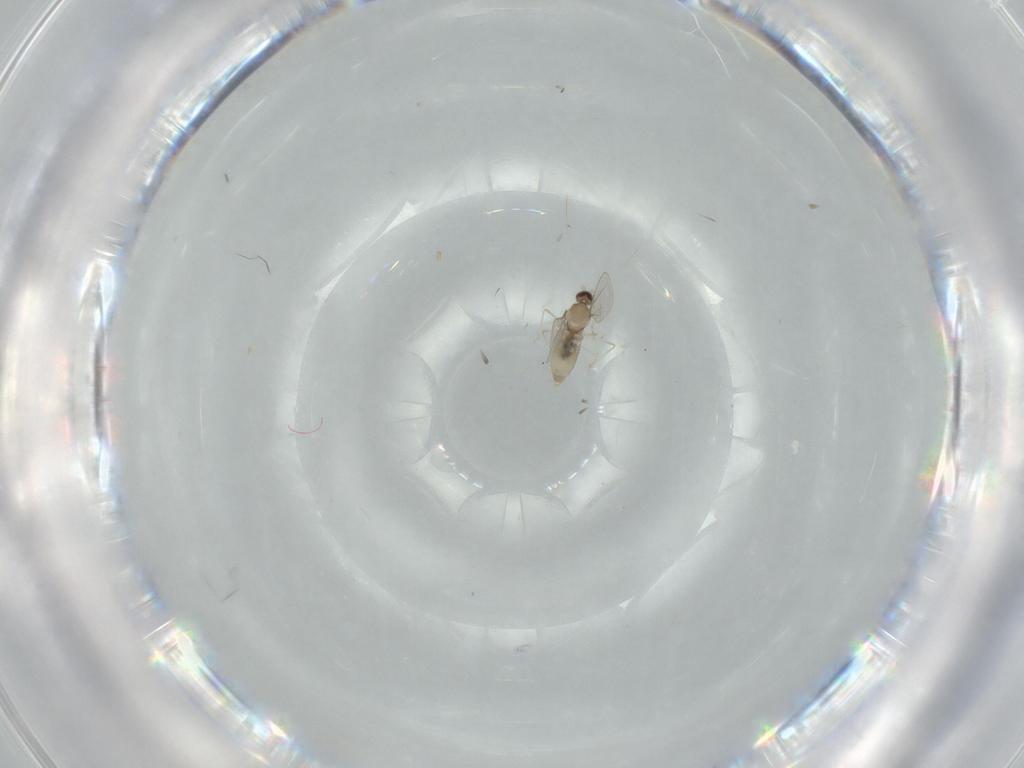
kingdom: Animalia
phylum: Arthropoda
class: Insecta
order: Diptera
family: Cecidomyiidae
